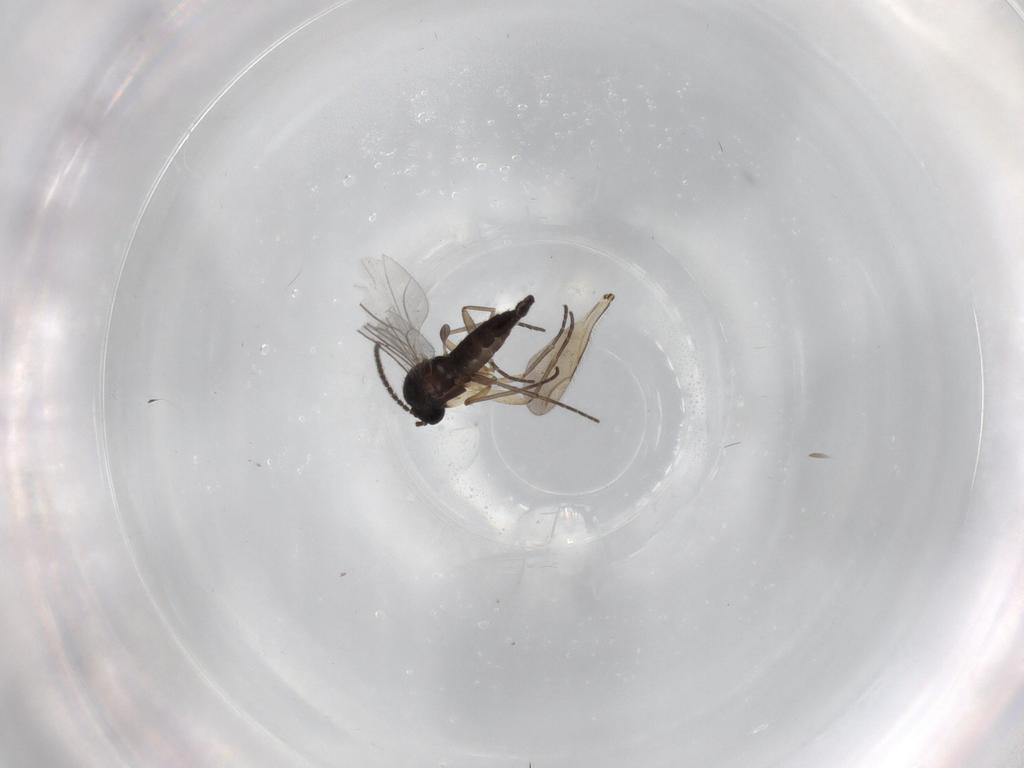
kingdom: Animalia
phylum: Arthropoda
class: Insecta
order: Diptera
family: Sciaridae
